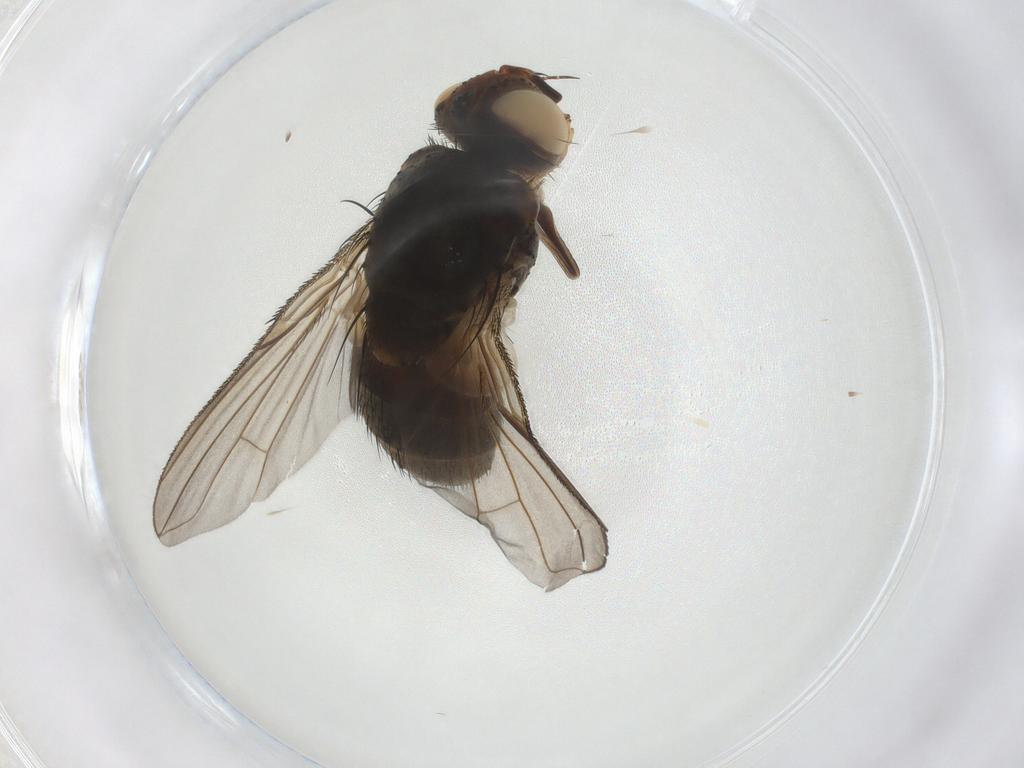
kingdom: Animalia
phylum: Arthropoda
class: Insecta
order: Diptera
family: Tachinidae
